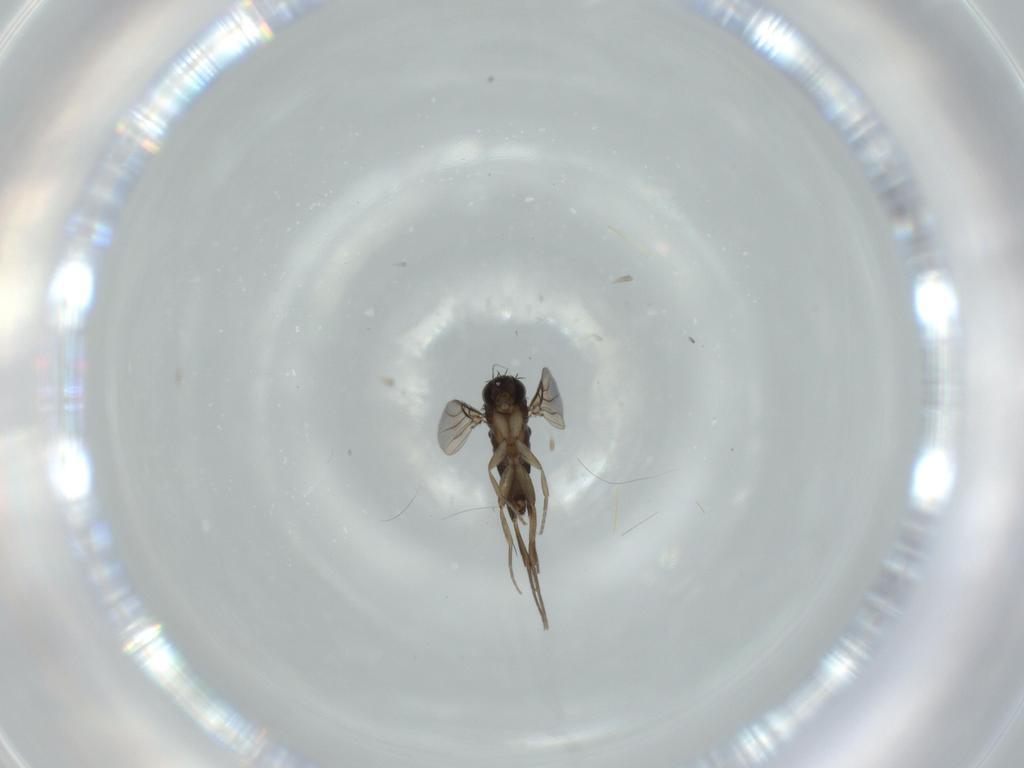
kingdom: Animalia
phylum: Arthropoda
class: Insecta
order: Diptera
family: Phoridae
